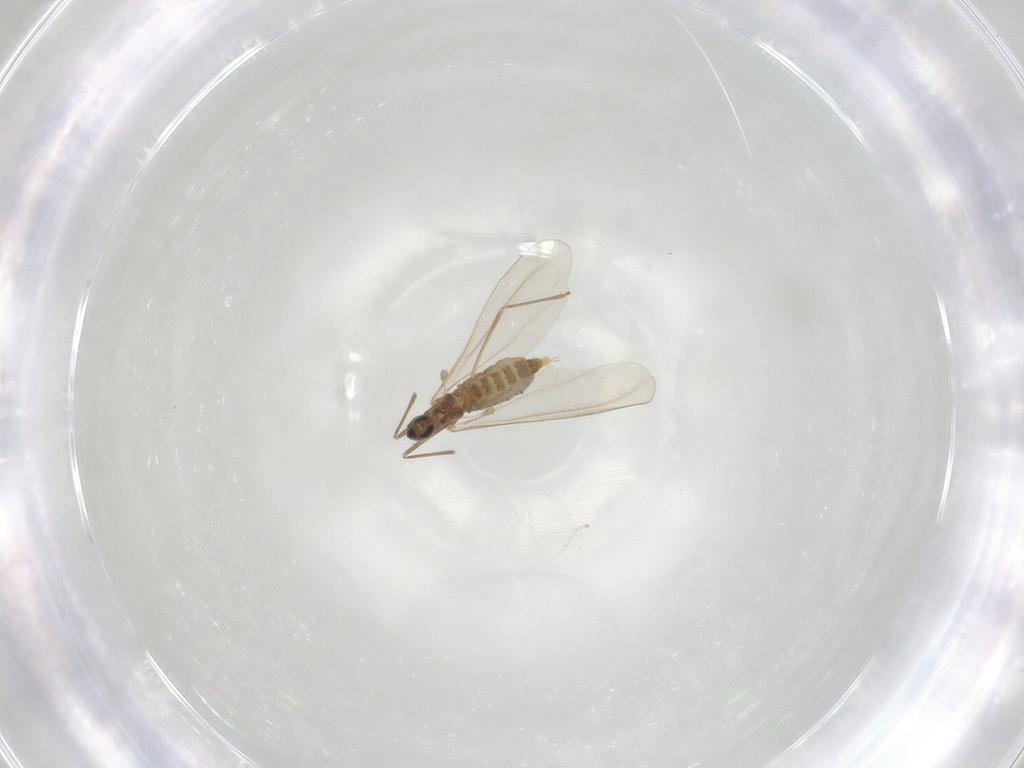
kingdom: Animalia
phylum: Arthropoda
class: Insecta
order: Diptera
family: Cecidomyiidae
